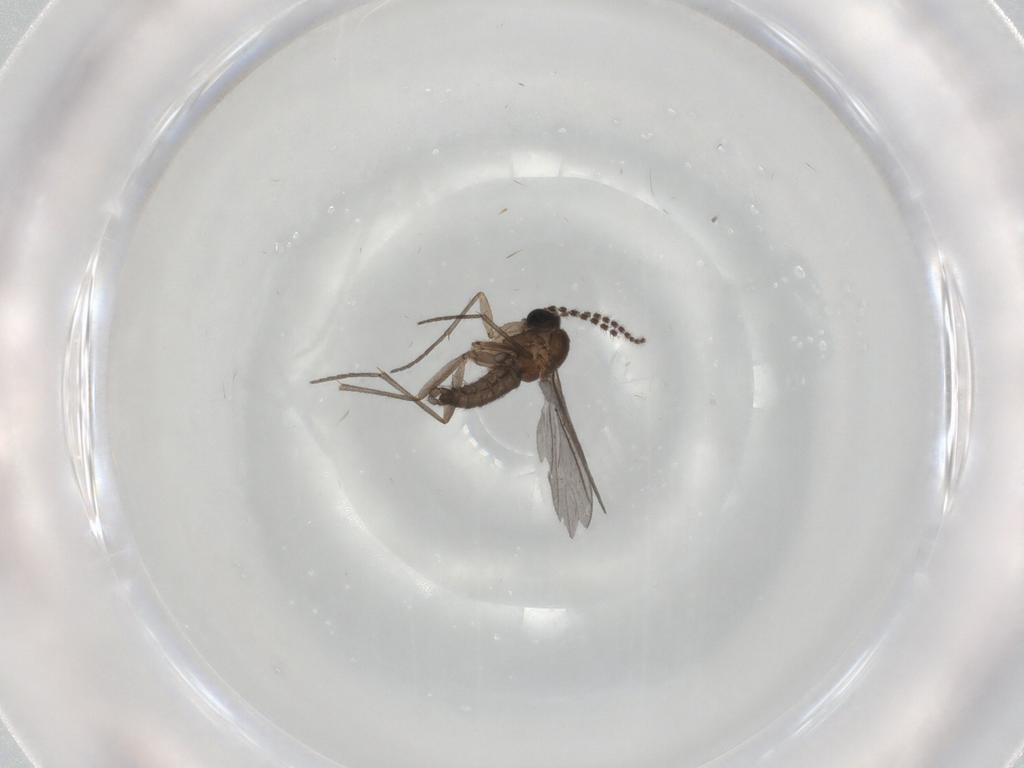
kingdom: Animalia
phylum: Arthropoda
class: Insecta
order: Diptera
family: Sciaridae
